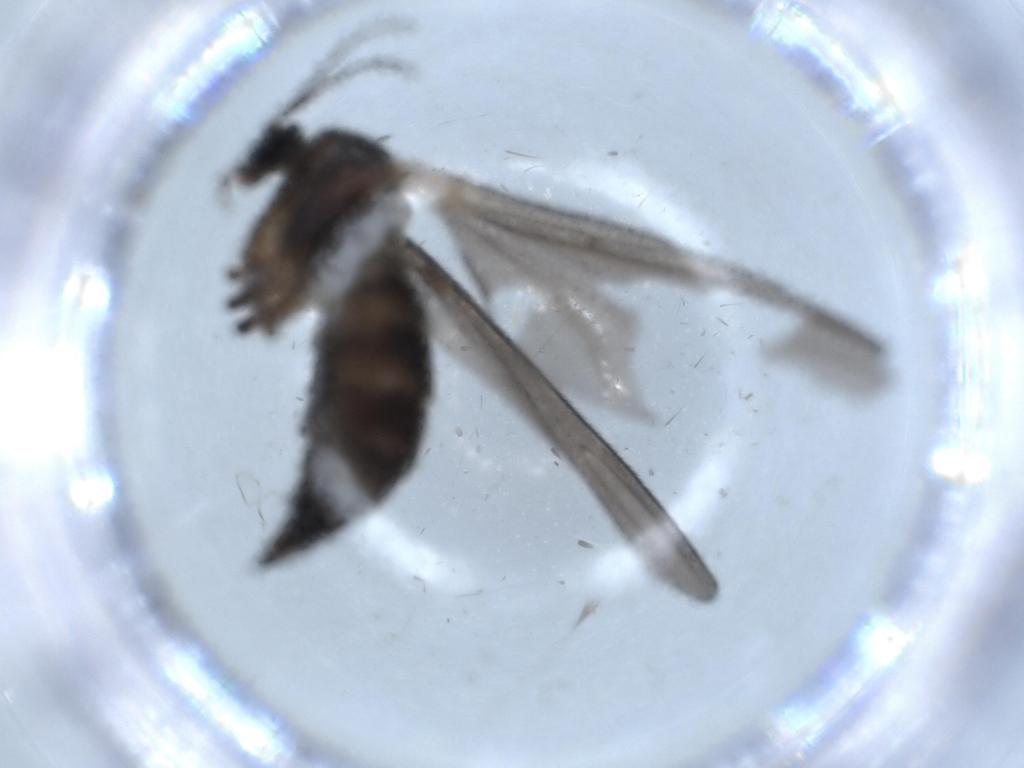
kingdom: Animalia
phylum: Arthropoda
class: Insecta
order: Diptera
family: Sciaridae
